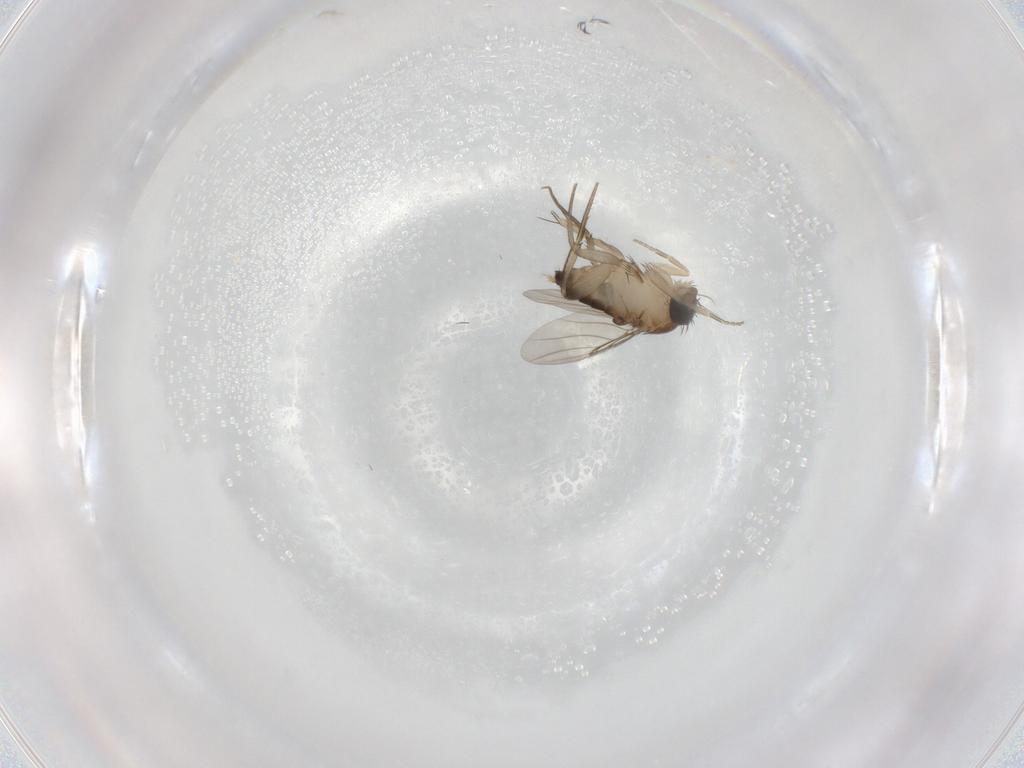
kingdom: Animalia
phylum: Arthropoda
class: Insecta
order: Diptera
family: Phoridae
